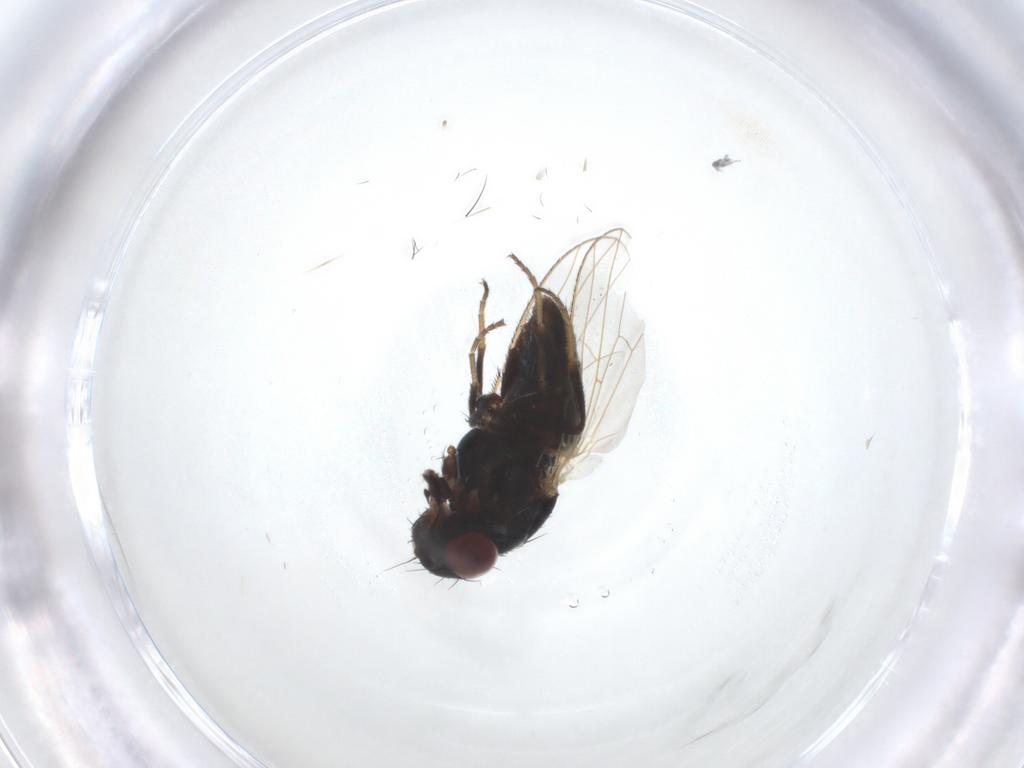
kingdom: Animalia
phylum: Arthropoda
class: Insecta
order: Diptera
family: Carnidae
